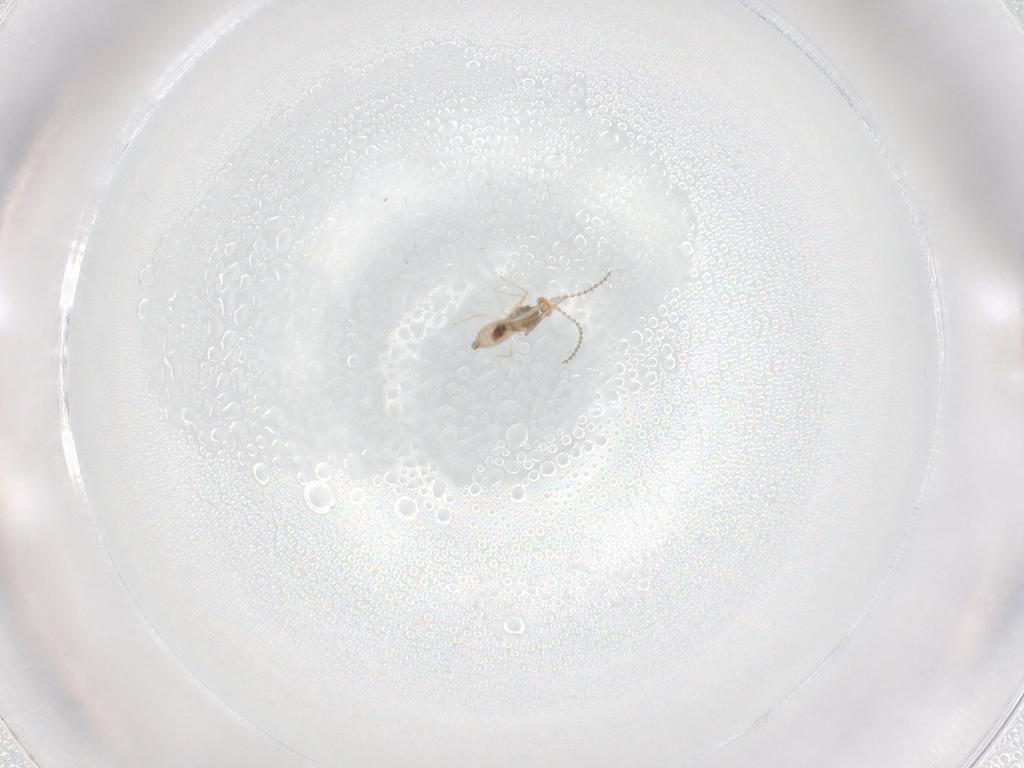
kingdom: Animalia
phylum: Arthropoda
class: Insecta
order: Diptera
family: Cecidomyiidae
